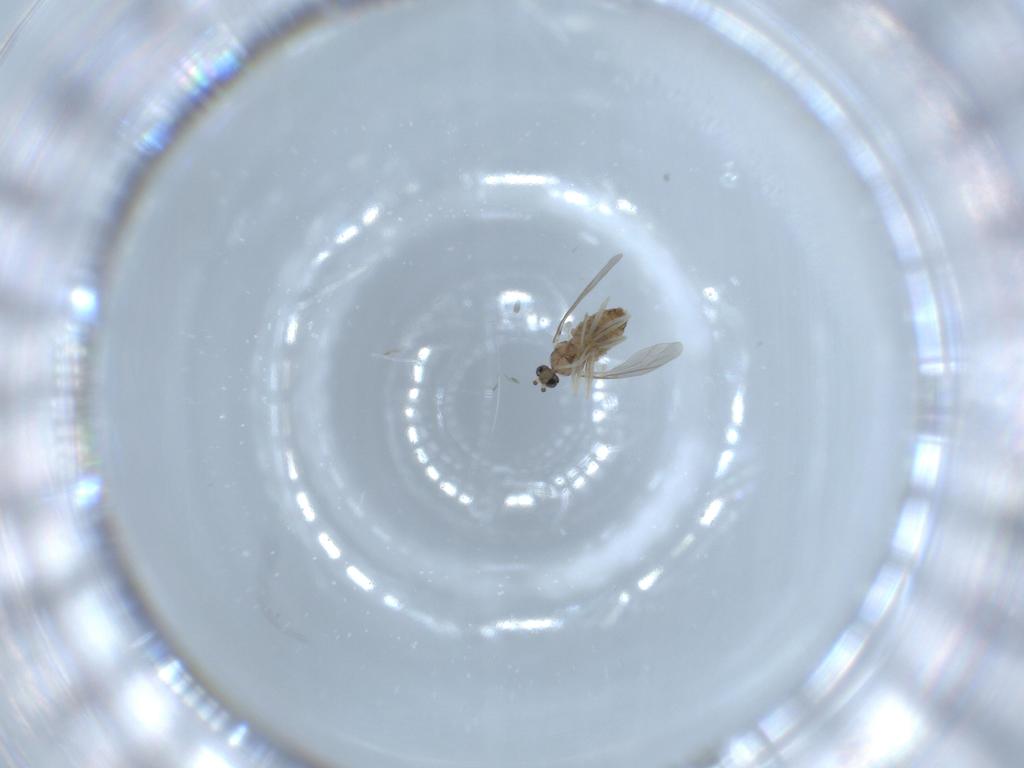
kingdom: Animalia
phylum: Arthropoda
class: Insecta
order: Diptera
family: Cecidomyiidae
